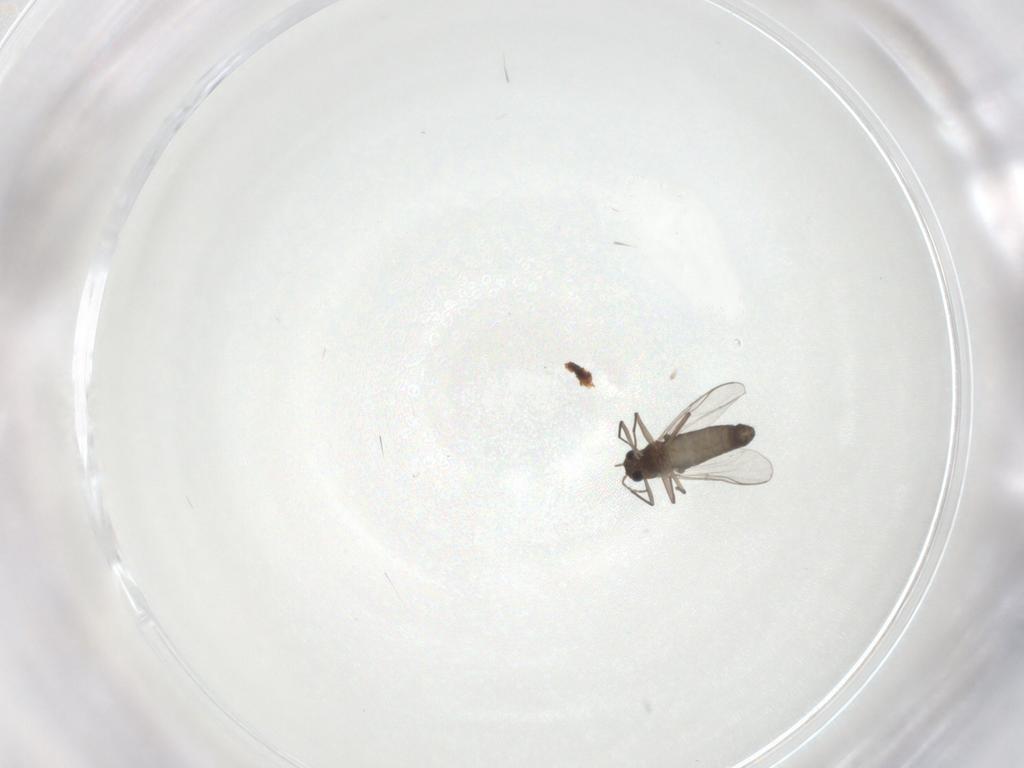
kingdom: Animalia
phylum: Arthropoda
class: Insecta
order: Diptera
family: Chironomidae
